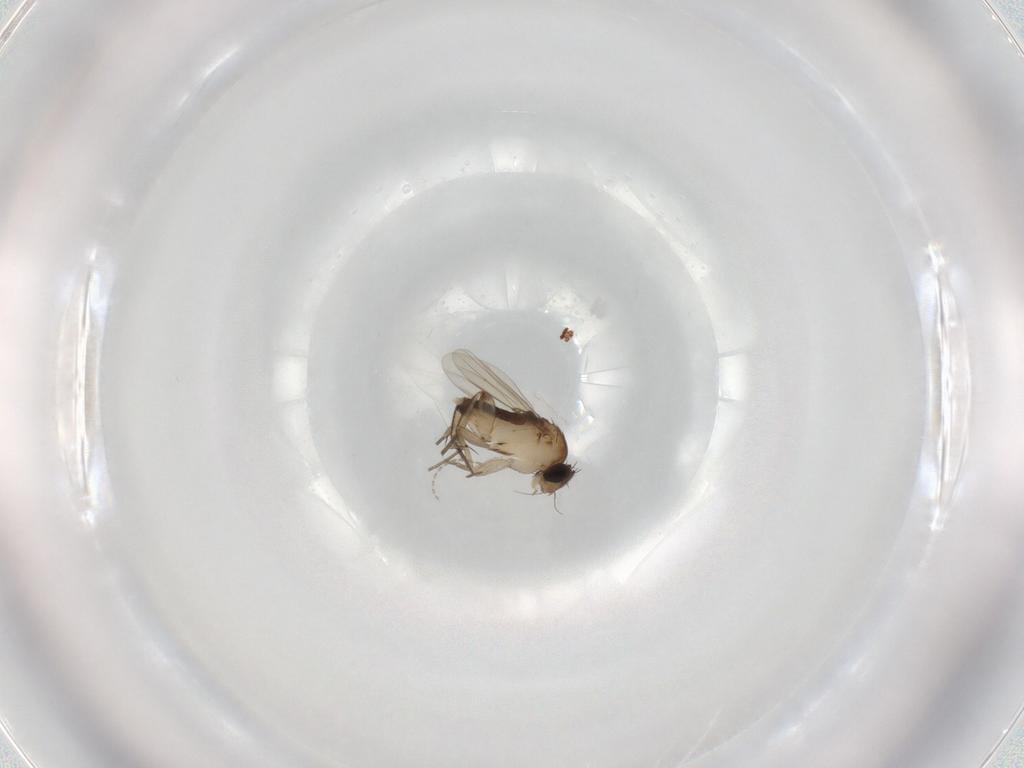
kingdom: Animalia
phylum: Arthropoda
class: Insecta
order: Diptera
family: Phoridae
